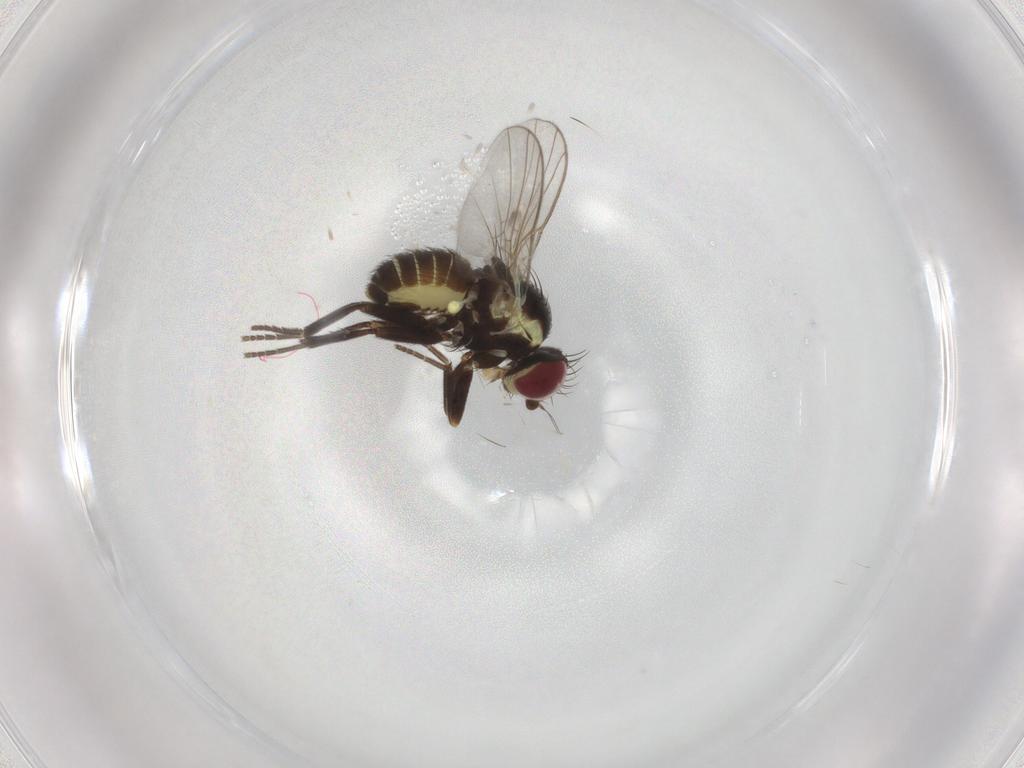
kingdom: Animalia
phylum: Arthropoda
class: Insecta
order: Diptera
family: Agromyzidae
